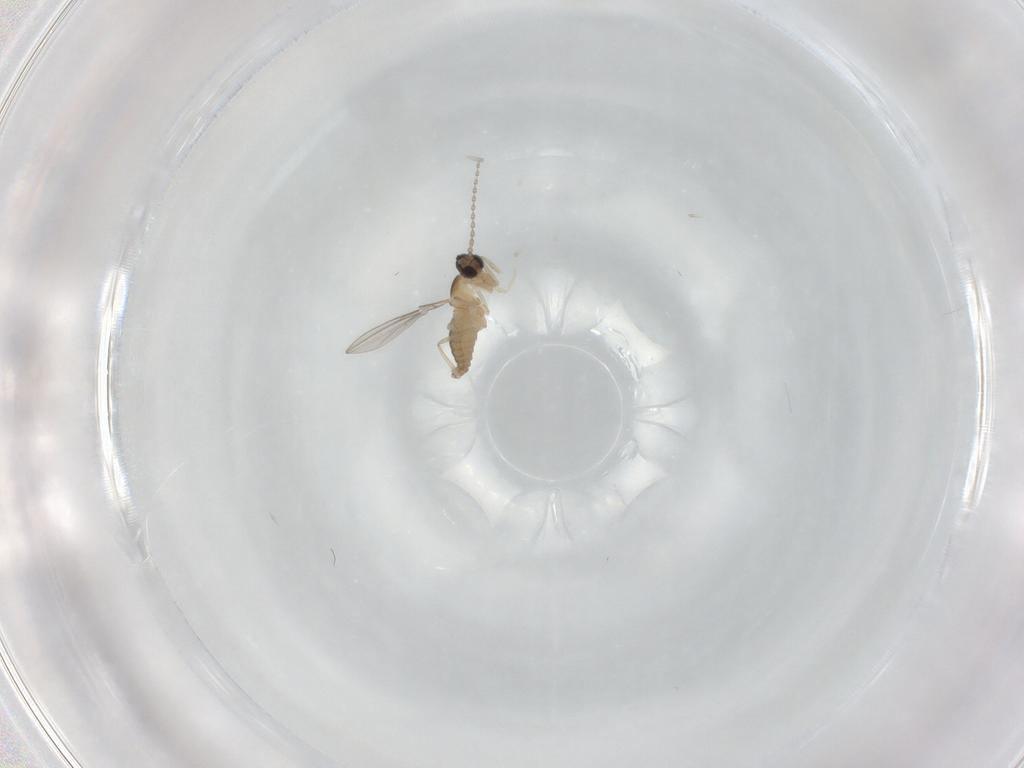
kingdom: Animalia
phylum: Arthropoda
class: Insecta
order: Diptera
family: Cecidomyiidae
